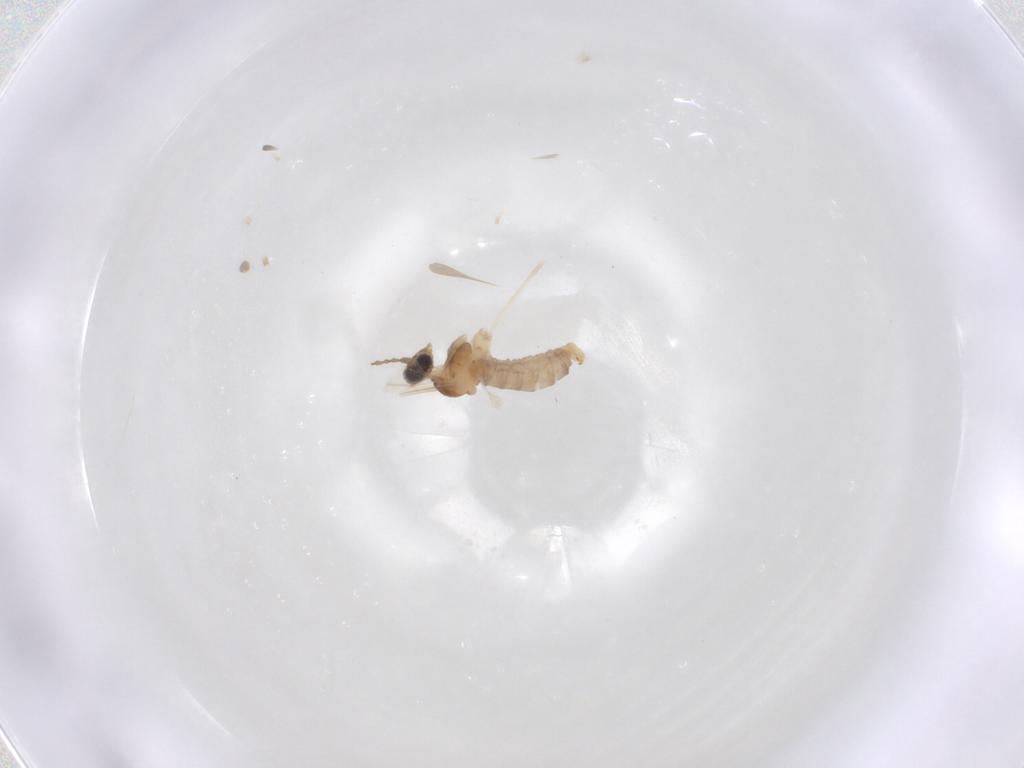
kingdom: Animalia
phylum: Arthropoda
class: Insecta
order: Diptera
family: Cecidomyiidae
